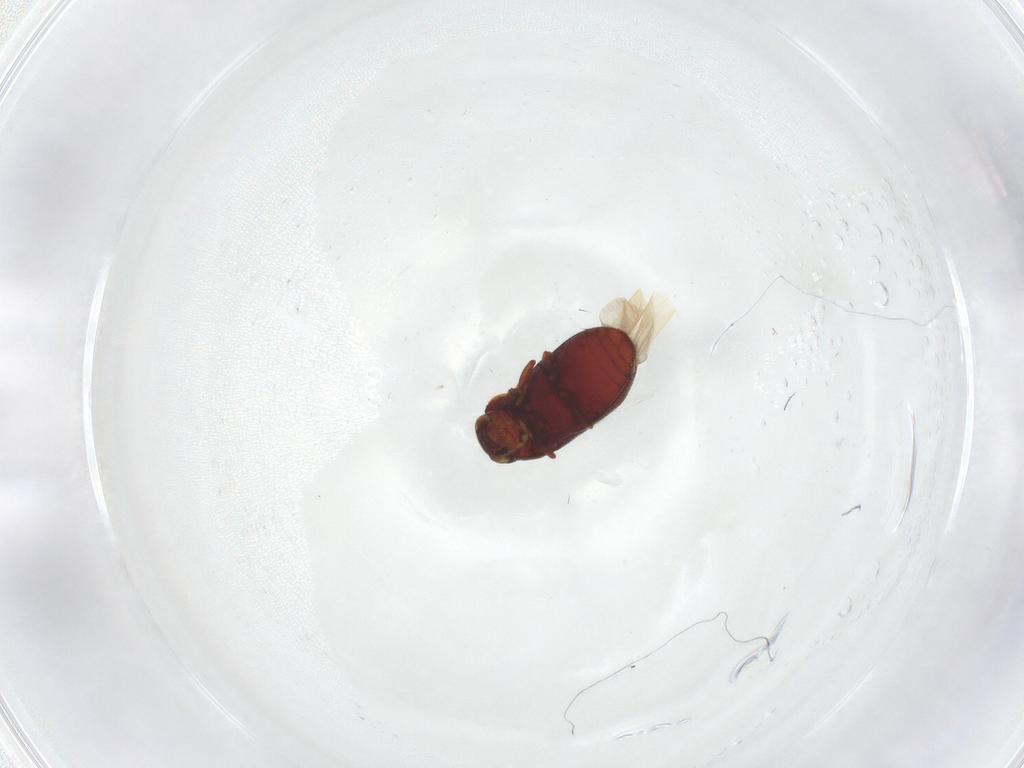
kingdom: Animalia
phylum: Arthropoda
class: Insecta
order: Coleoptera
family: Ptinidae
